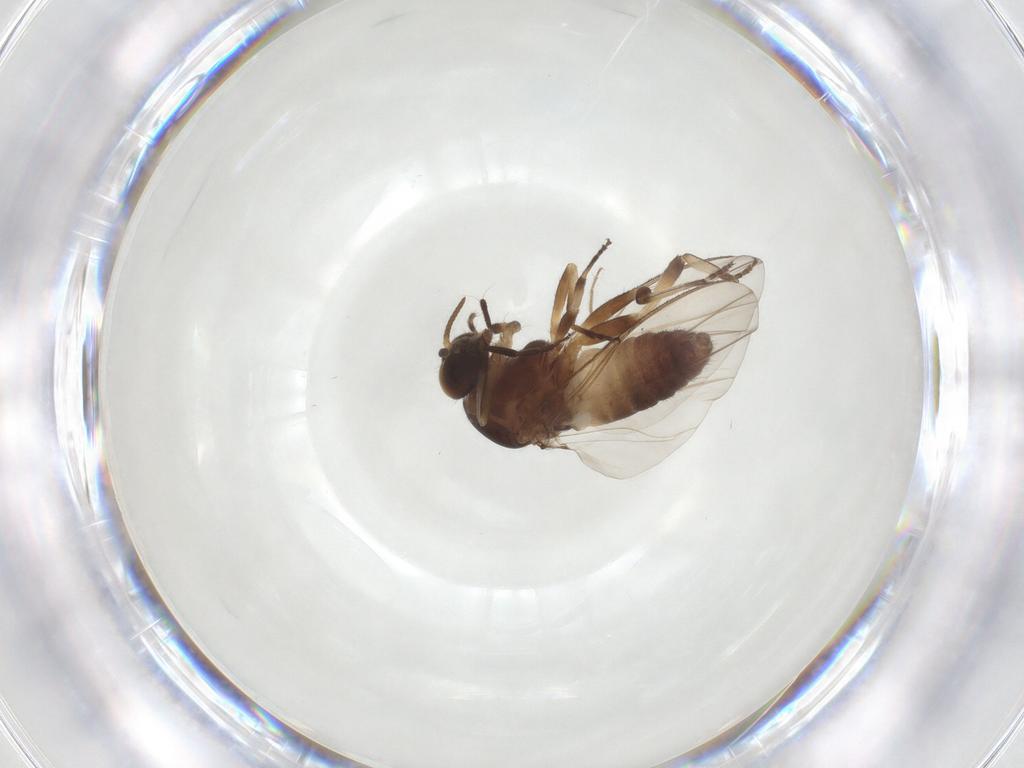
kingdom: Animalia
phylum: Arthropoda
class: Insecta
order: Diptera
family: Simuliidae
